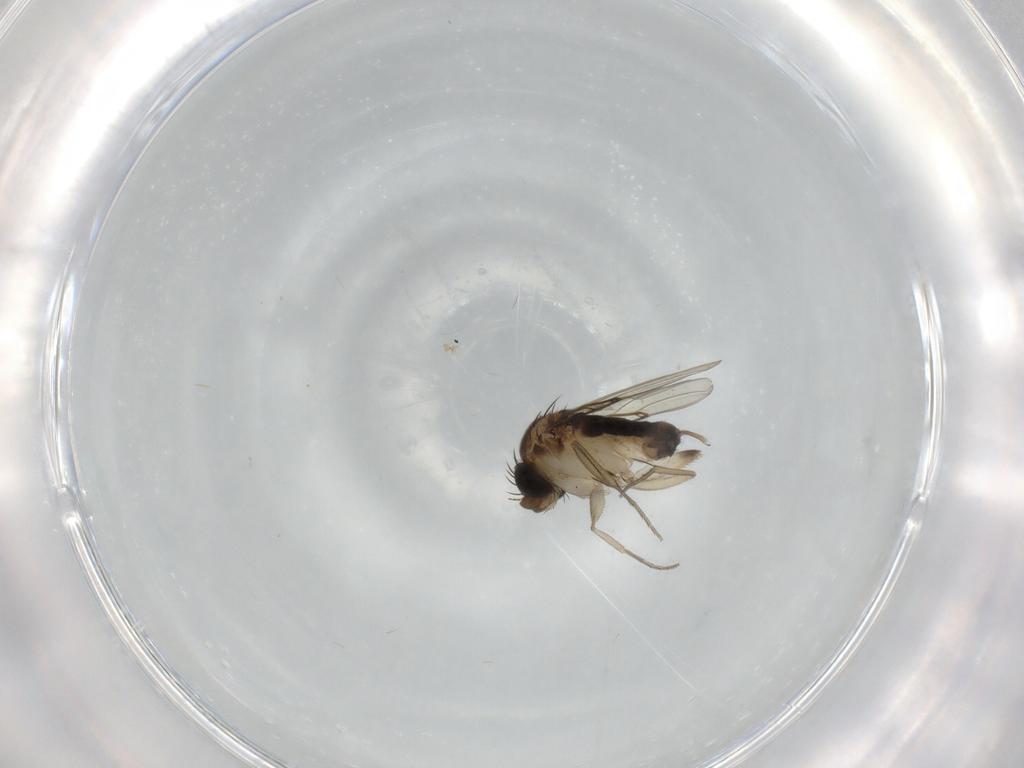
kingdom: Animalia
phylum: Arthropoda
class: Insecta
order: Diptera
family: Phoridae
